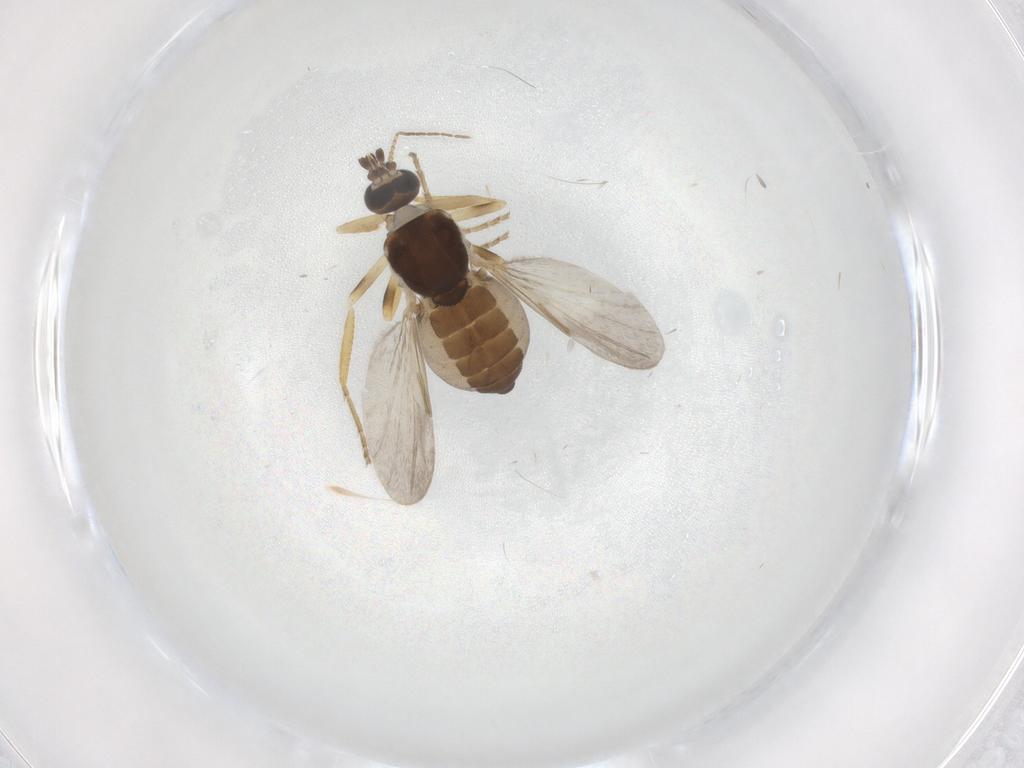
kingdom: Animalia
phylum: Arthropoda
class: Insecta
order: Diptera
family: Ceratopogonidae
